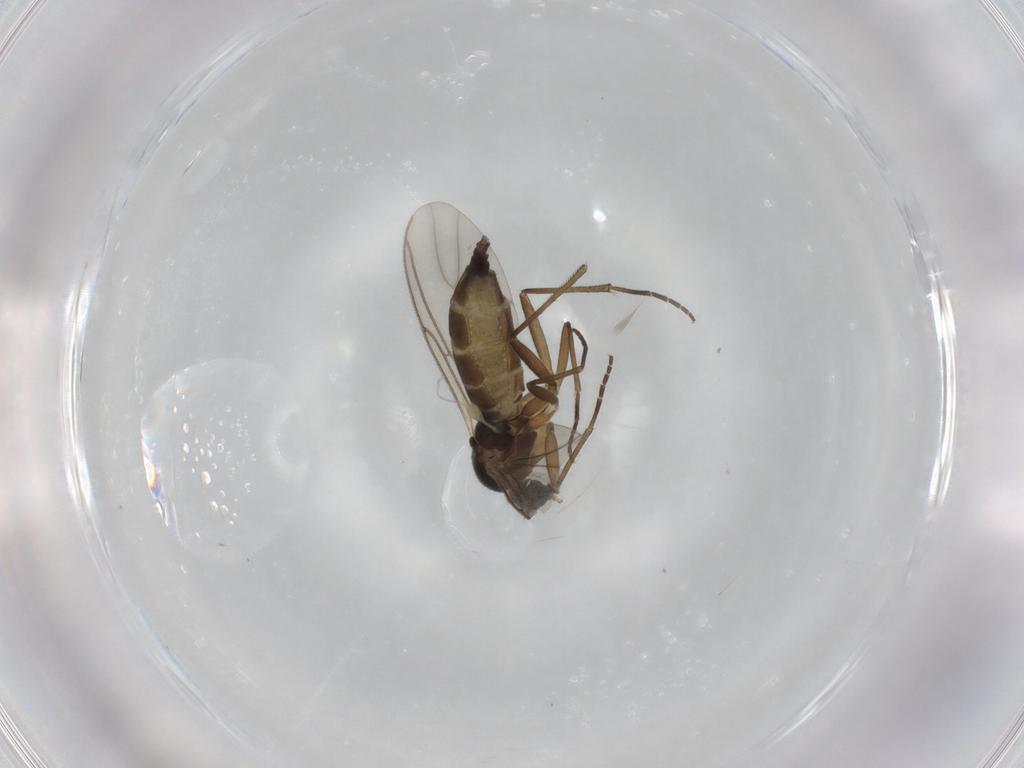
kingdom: Animalia
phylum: Arthropoda
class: Insecta
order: Diptera
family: Sciaridae
